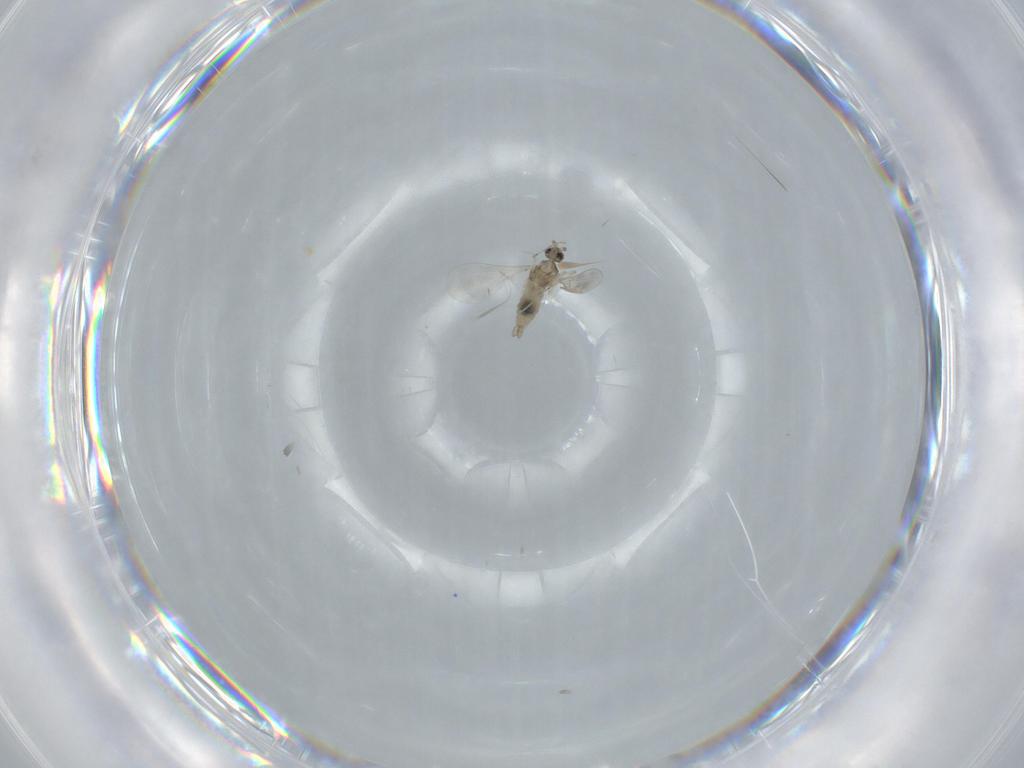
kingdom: Animalia
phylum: Arthropoda
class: Insecta
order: Diptera
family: Cecidomyiidae
